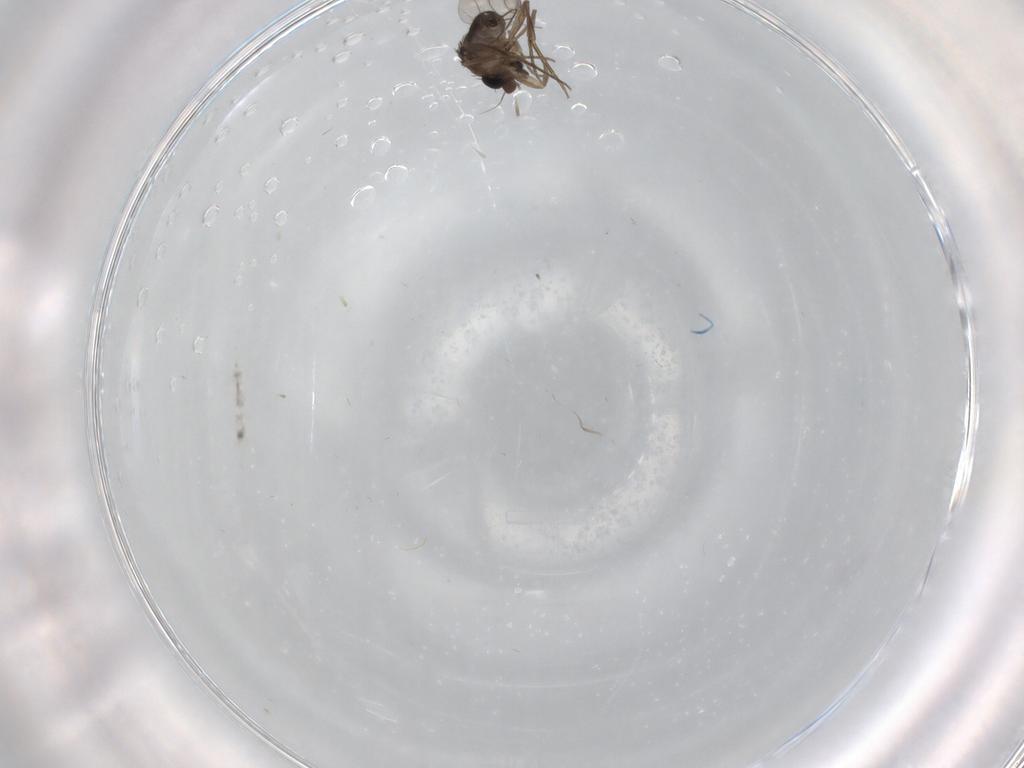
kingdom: Animalia
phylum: Arthropoda
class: Insecta
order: Diptera
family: Phoridae
